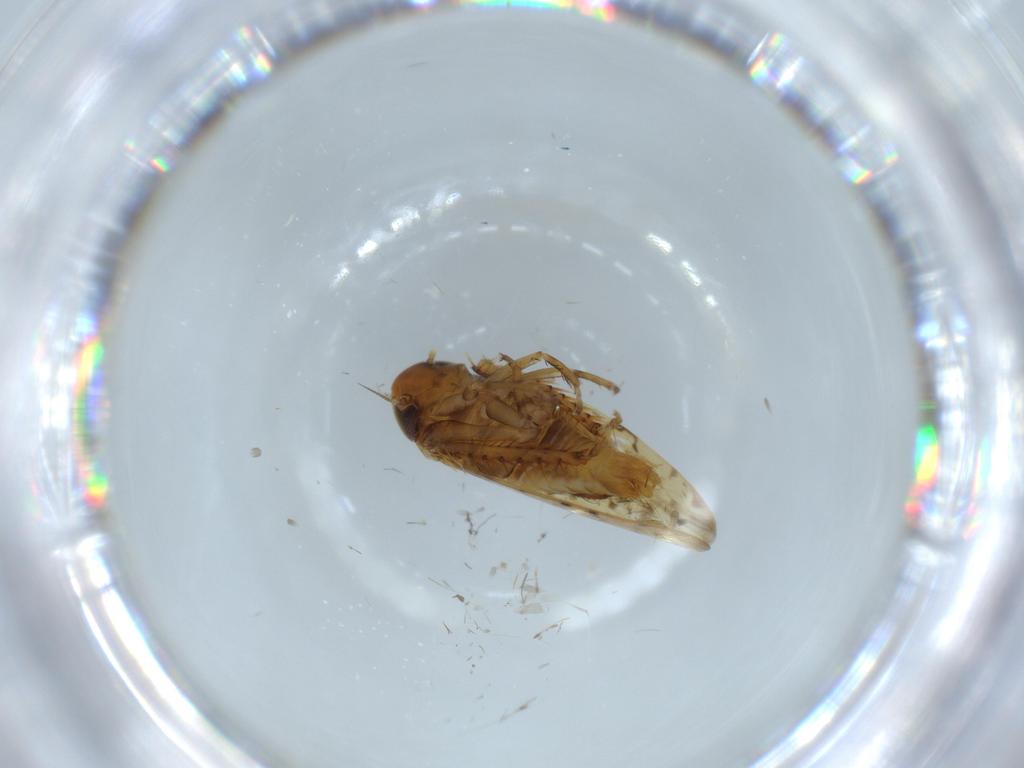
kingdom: Animalia
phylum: Arthropoda
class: Insecta
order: Hemiptera
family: Cicadellidae
